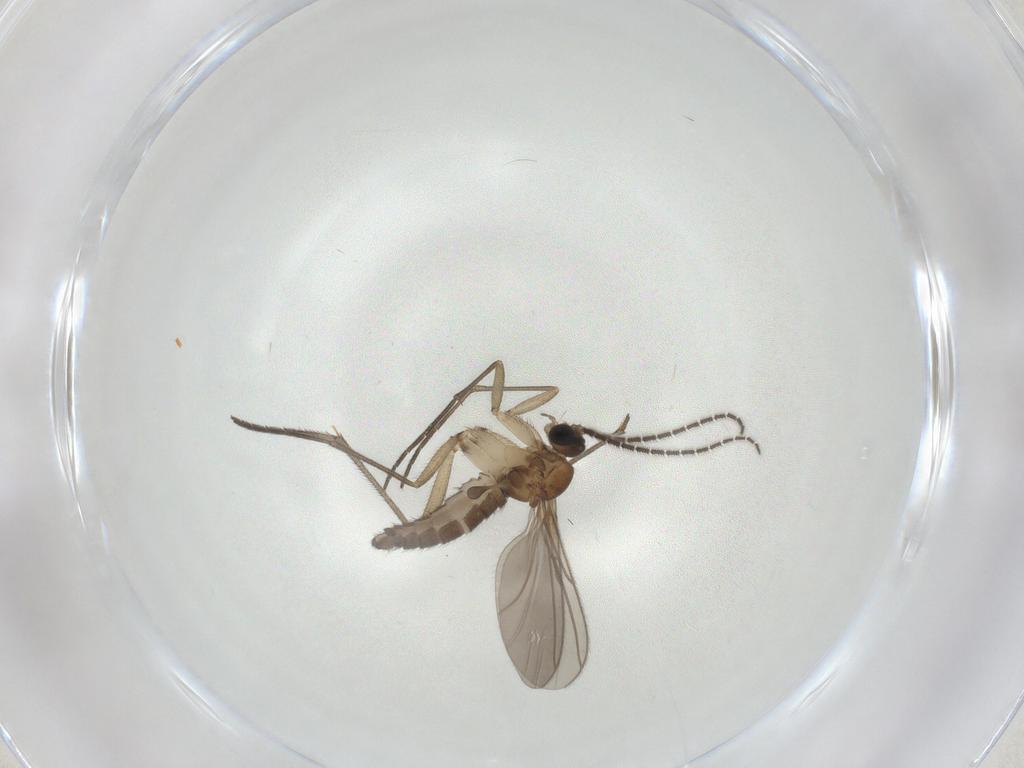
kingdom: Animalia
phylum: Arthropoda
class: Insecta
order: Diptera
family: Sciaridae
